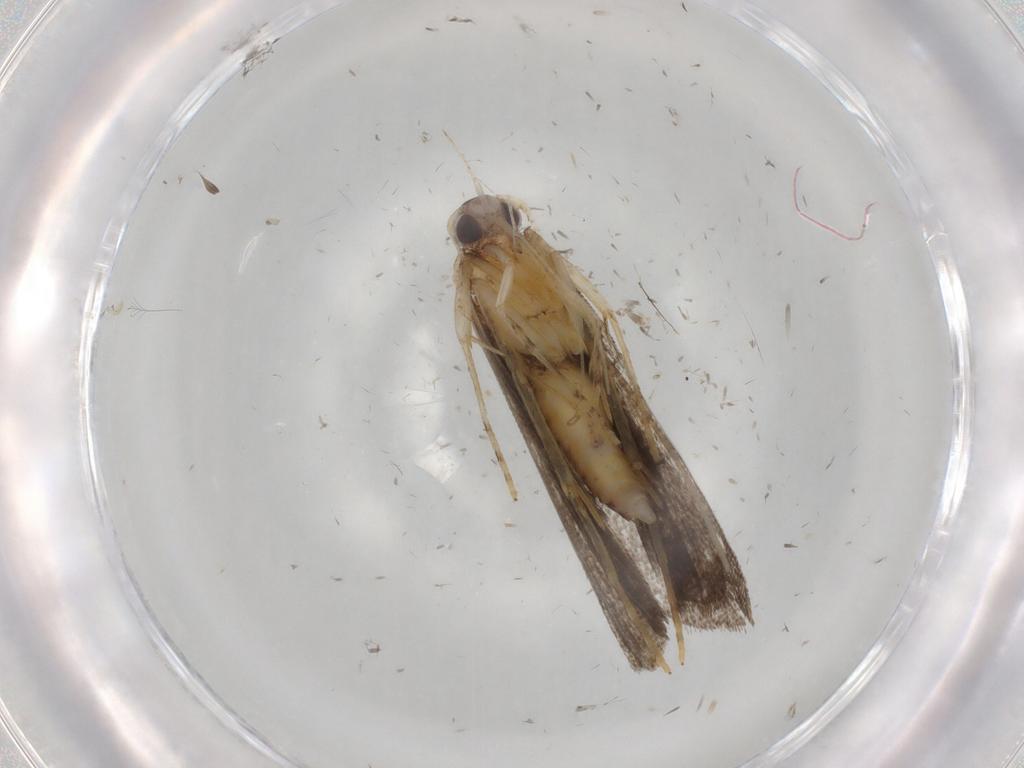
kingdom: Animalia
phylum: Arthropoda
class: Insecta
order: Lepidoptera
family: Cosmopterigidae
